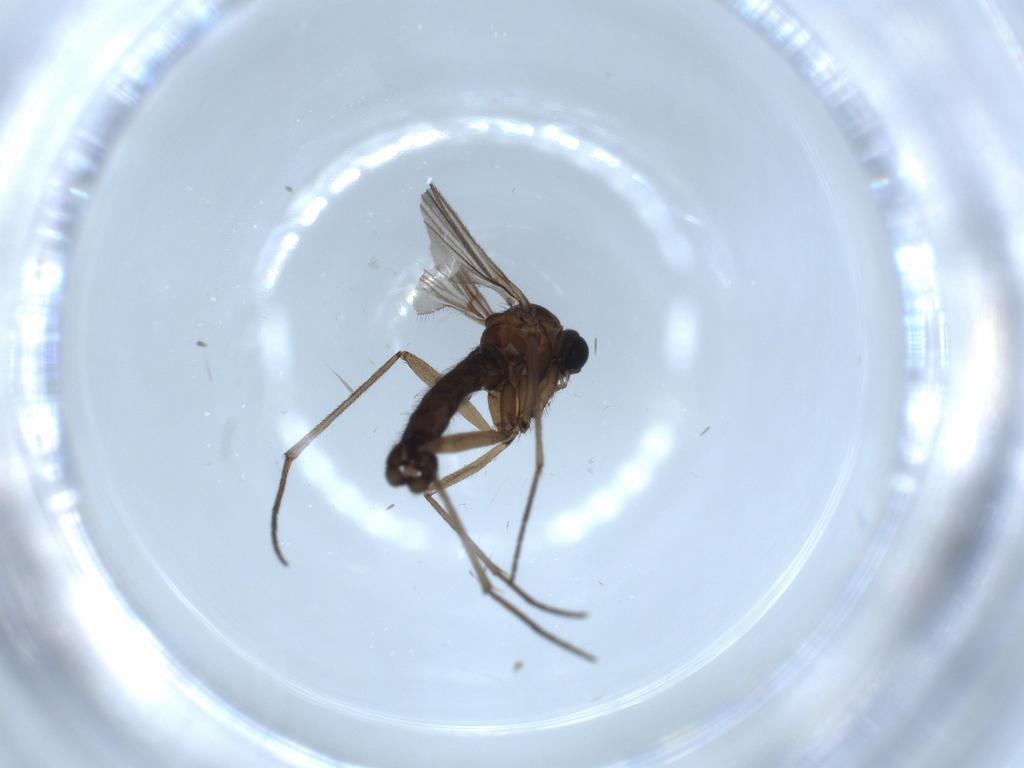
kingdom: Animalia
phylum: Arthropoda
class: Insecta
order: Diptera
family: Sciaridae
